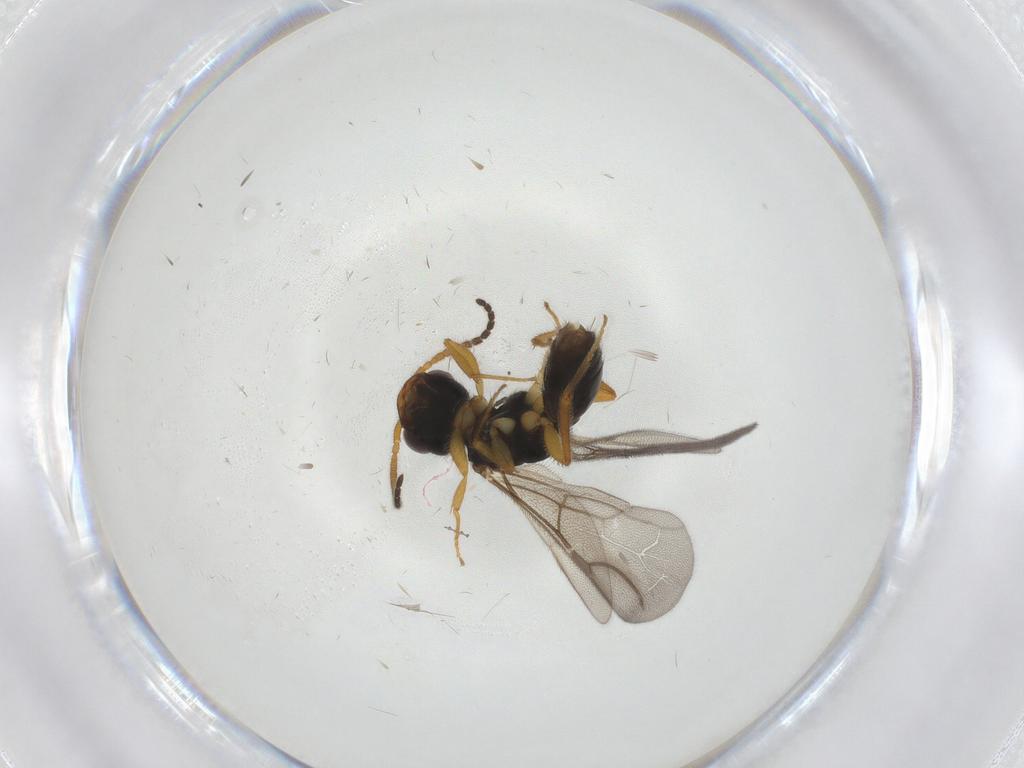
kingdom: Animalia
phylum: Arthropoda
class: Insecta
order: Hymenoptera
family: Bethylidae
